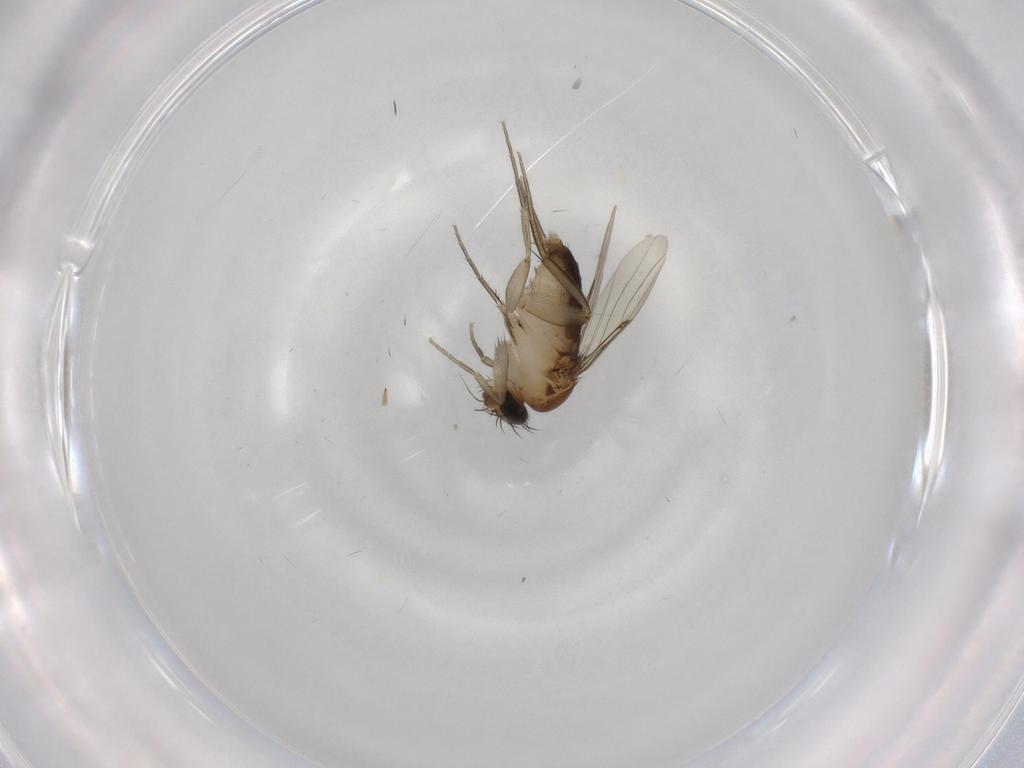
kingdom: Animalia
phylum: Arthropoda
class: Insecta
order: Diptera
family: Phoridae
